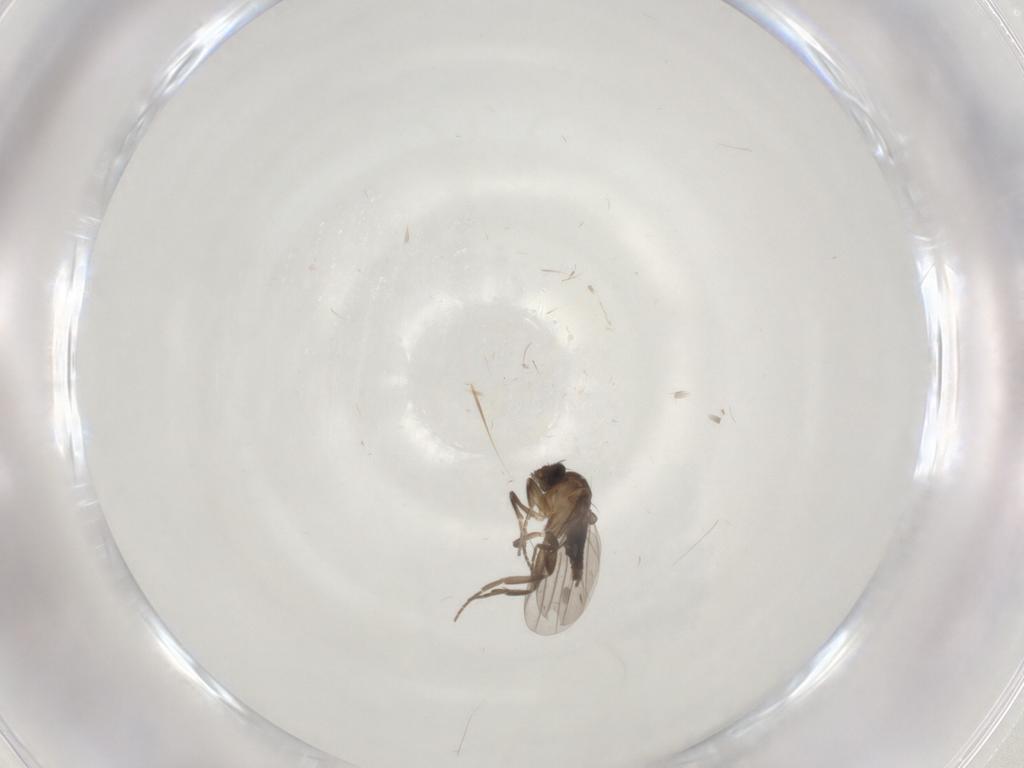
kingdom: Animalia
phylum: Arthropoda
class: Insecta
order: Diptera
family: Phoridae
